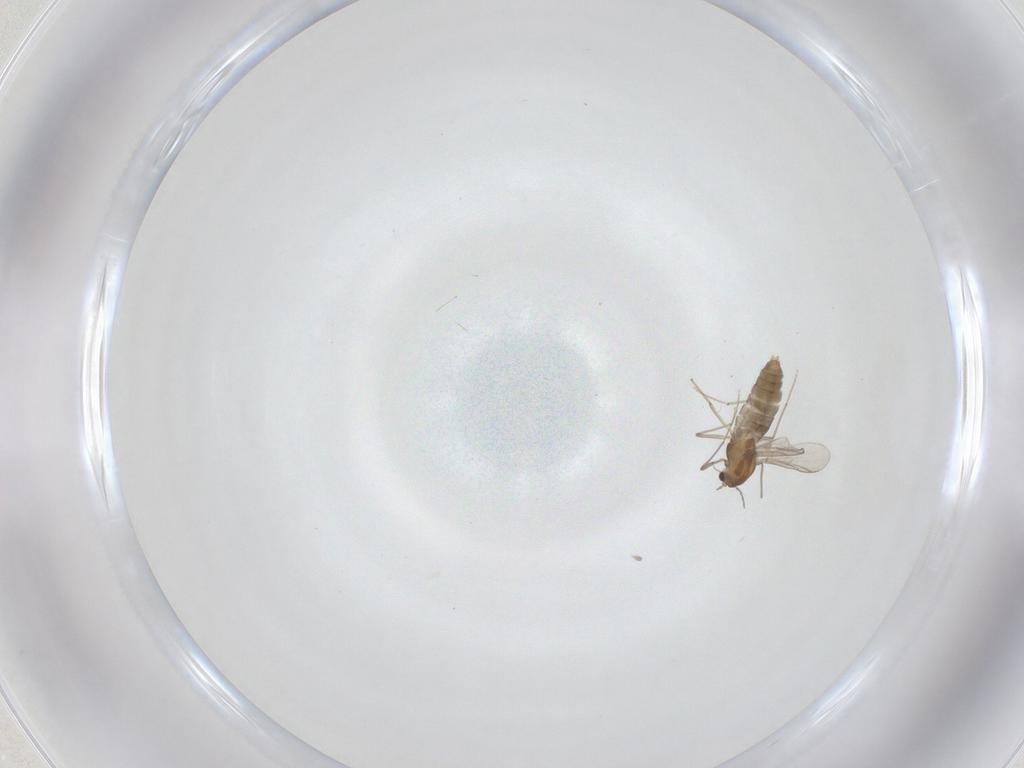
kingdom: Animalia
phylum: Arthropoda
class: Insecta
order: Diptera
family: Chironomidae
